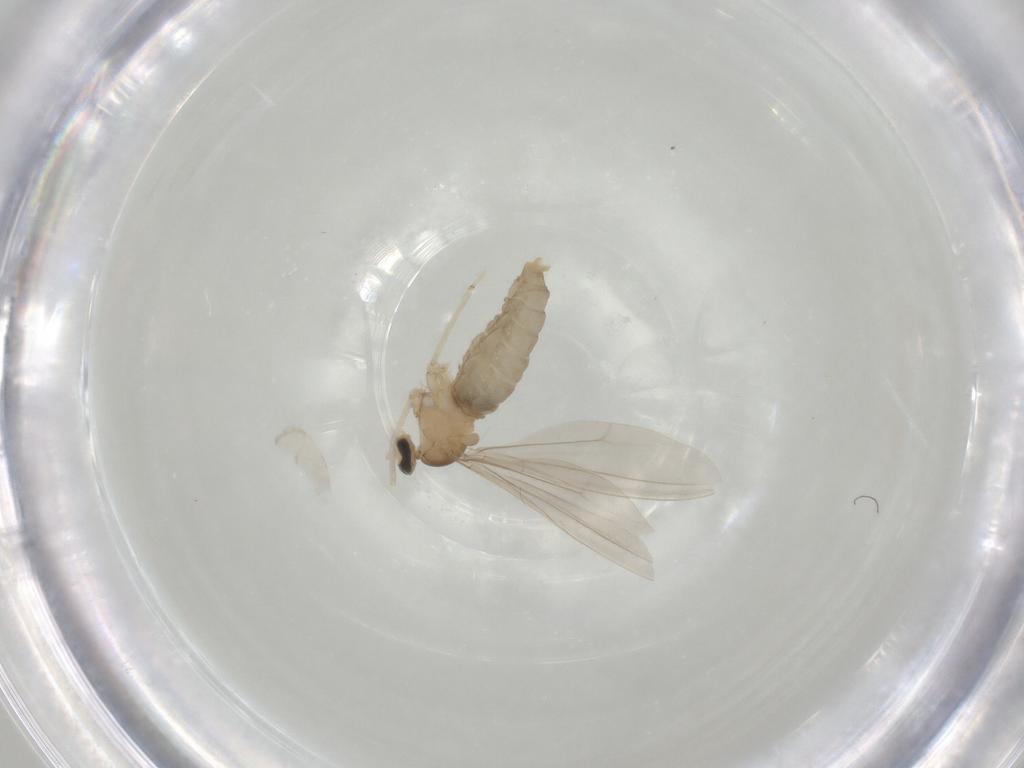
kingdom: Animalia
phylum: Arthropoda
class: Insecta
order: Diptera
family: Cecidomyiidae
